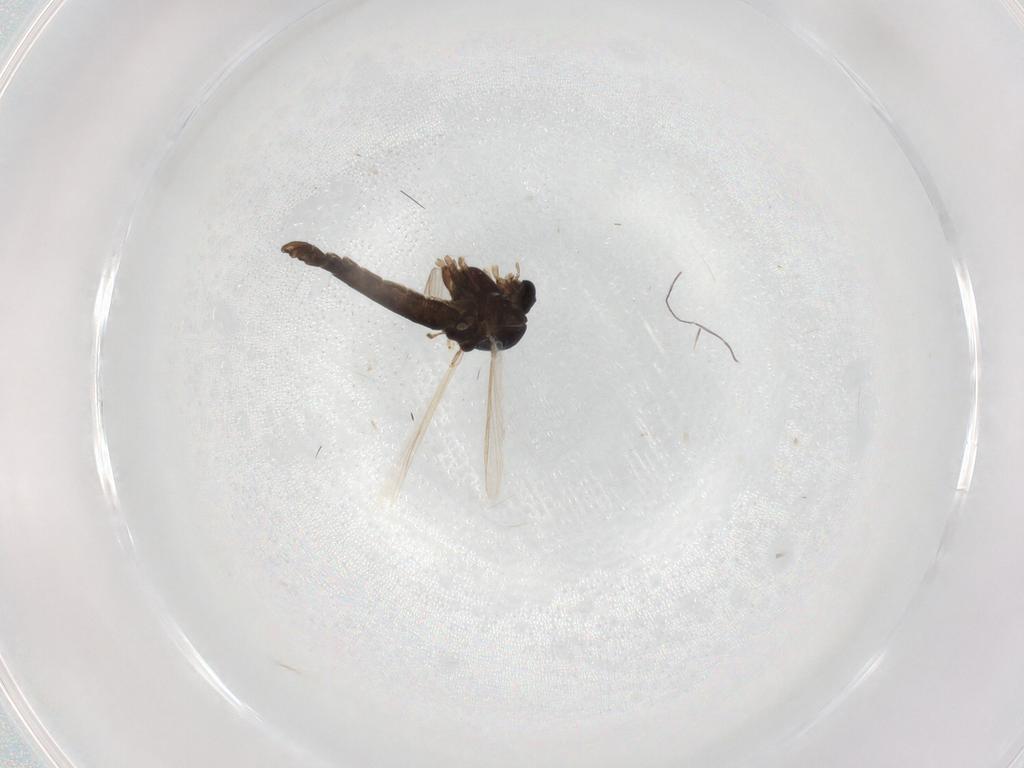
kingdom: Animalia
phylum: Arthropoda
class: Insecta
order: Diptera
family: Chironomidae
